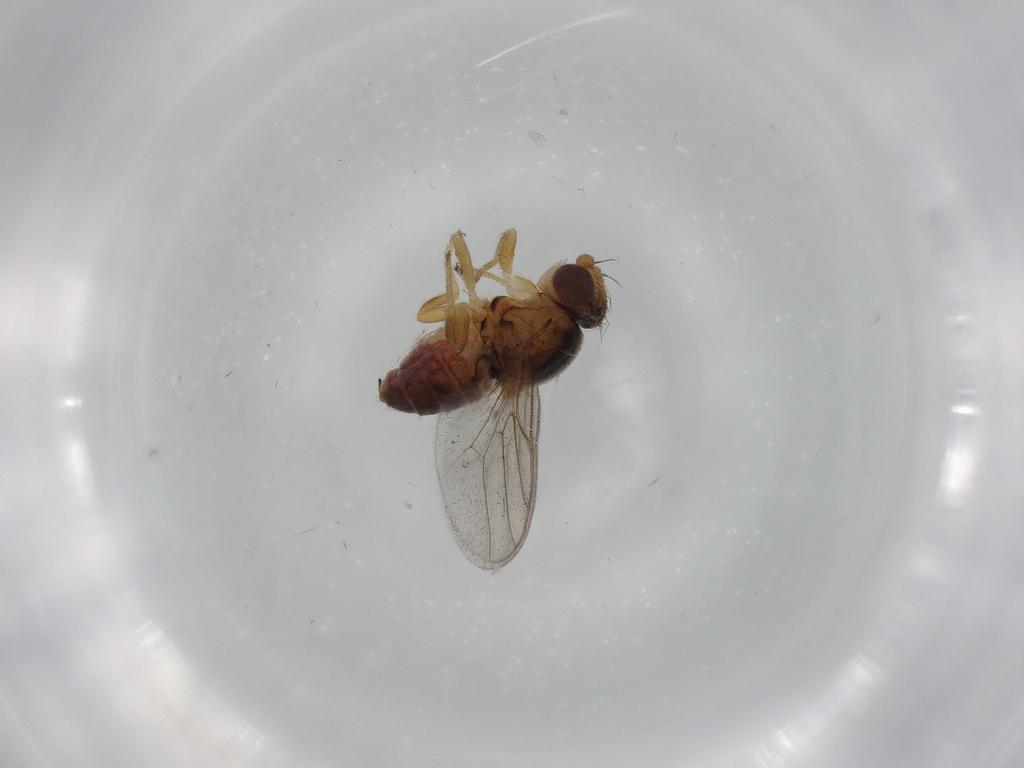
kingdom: Animalia
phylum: Arthropoda
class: Insecta
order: Diptera
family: Chloropidae
